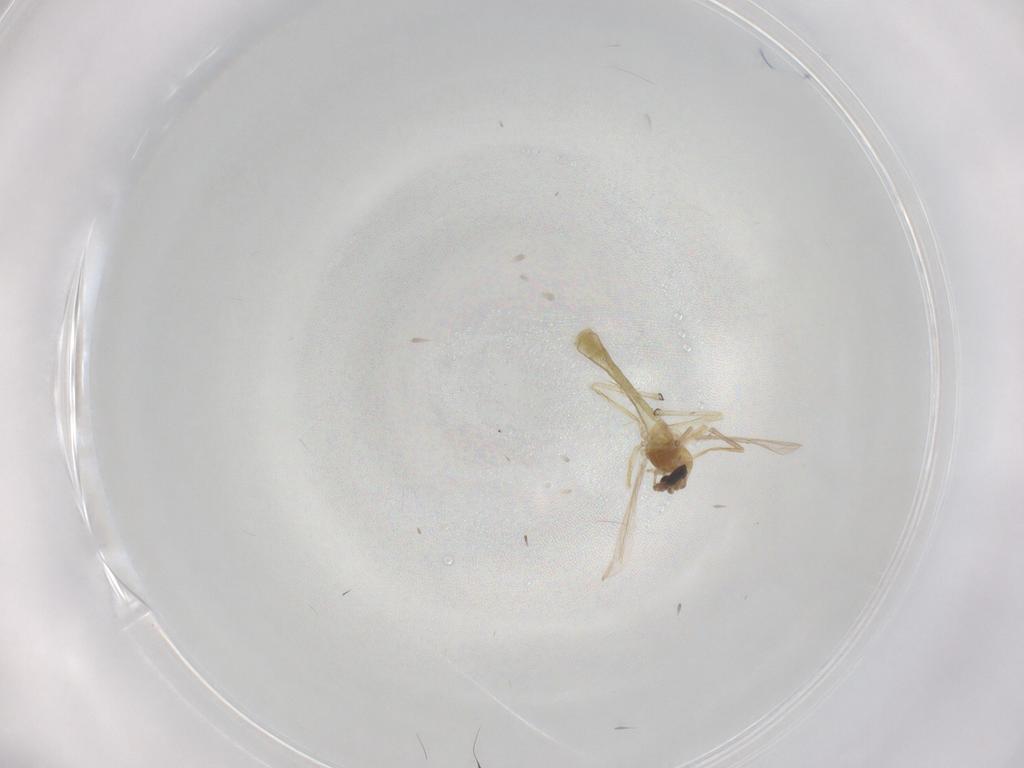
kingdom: Animalia
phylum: Arthropoda
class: Insecta
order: Diptera
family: Chironomidae
